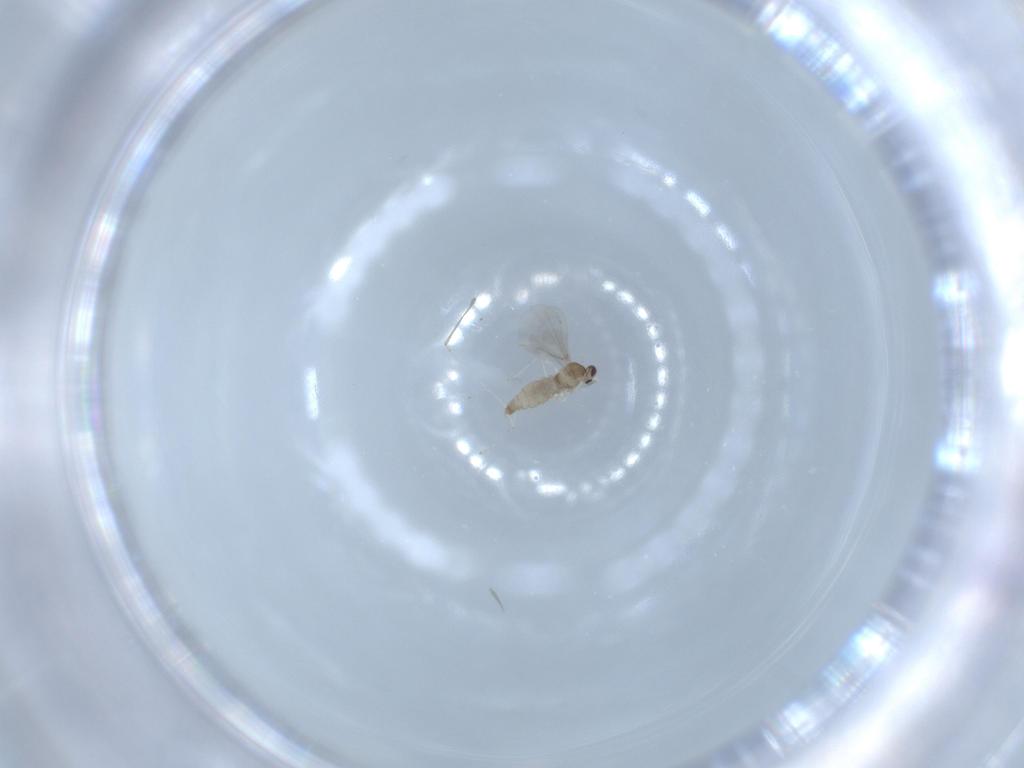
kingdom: Animalia
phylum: Arthropoda
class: Insecta
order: Diptera
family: Cecidomyiidae
